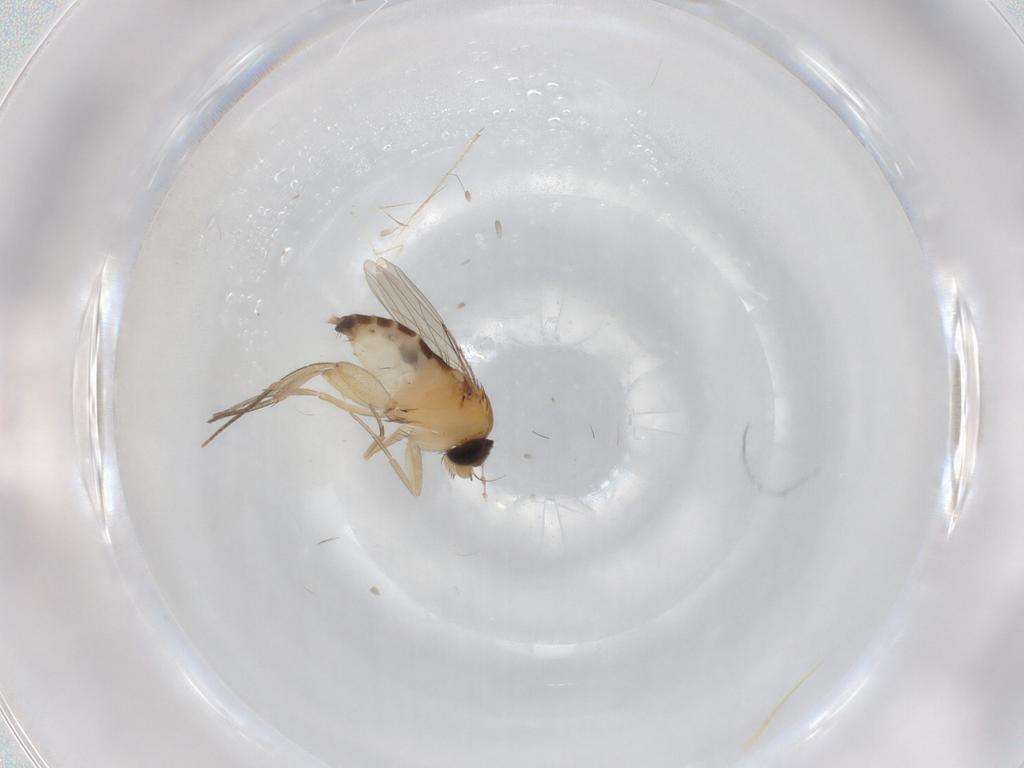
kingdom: Animalia
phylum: Arthropoda
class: Insecta
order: Diptera
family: Phoridae
